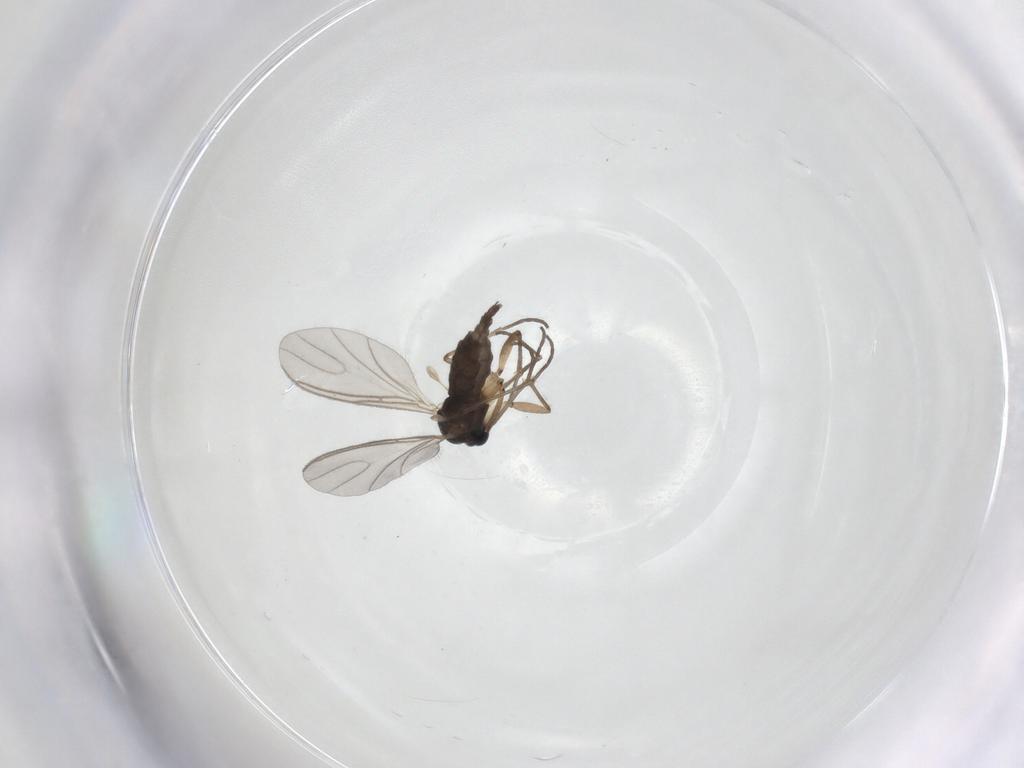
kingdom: Animalia
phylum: Arthropoda
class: Insecta
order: Diptera
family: Sciaridae
